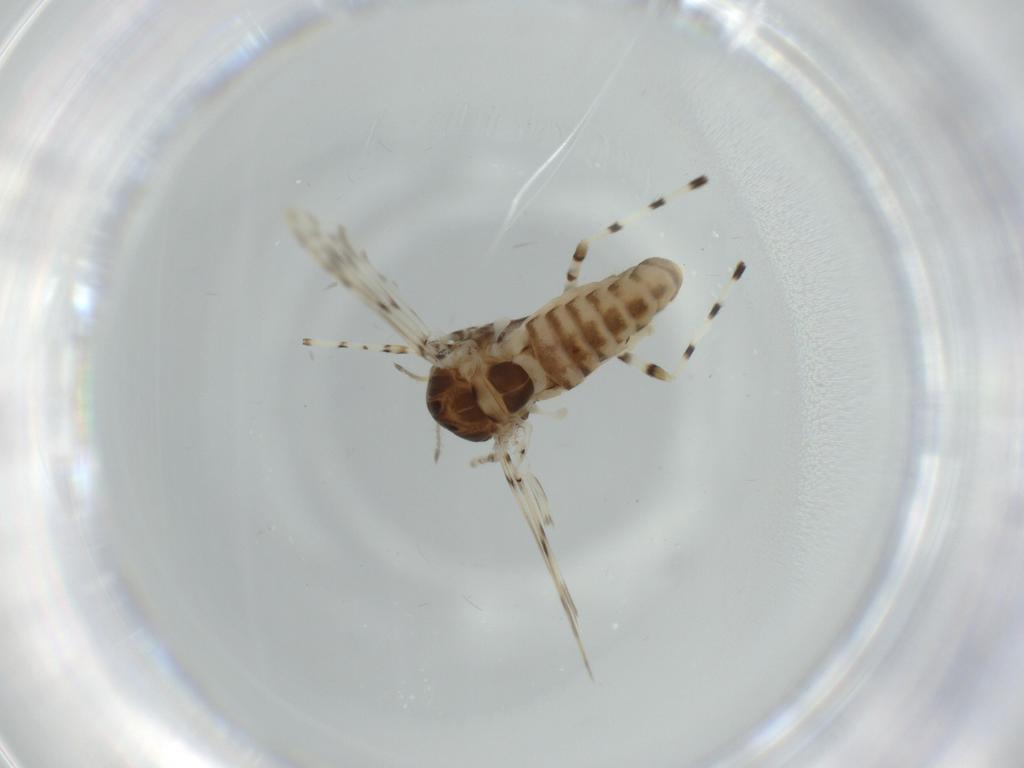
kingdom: Animalia
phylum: Arthropoda
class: Insecta
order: Diptera
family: Chironomidae
